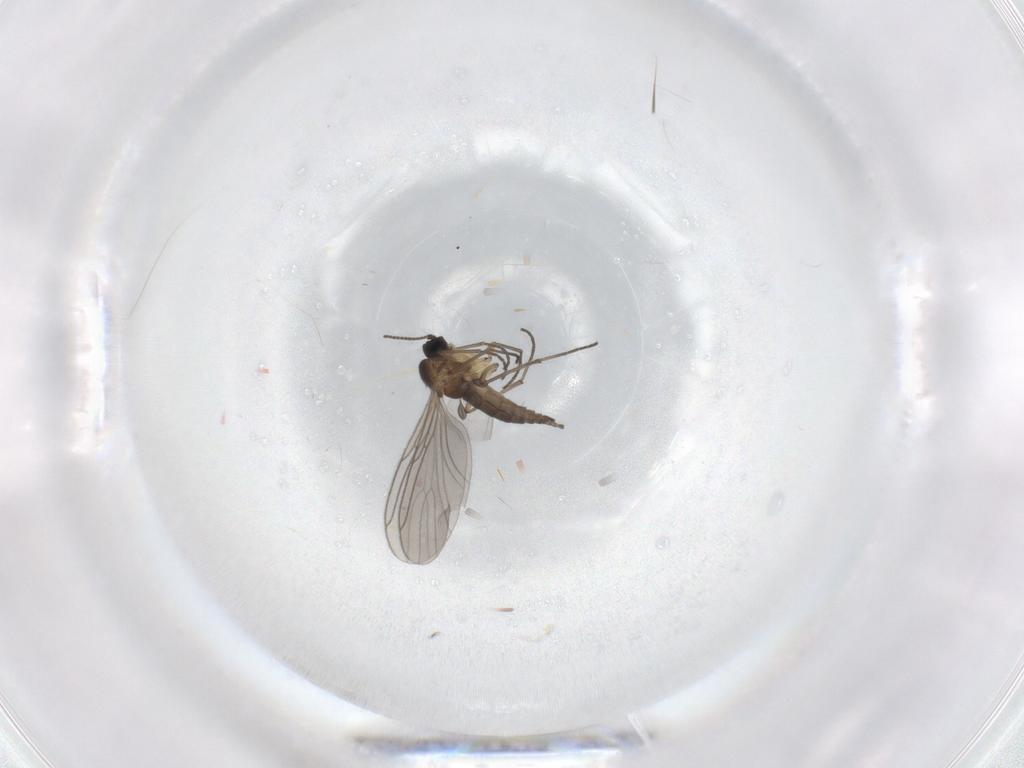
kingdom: Animalia
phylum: Arthropoda
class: Insecta
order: Diptera
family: Sciaridae
